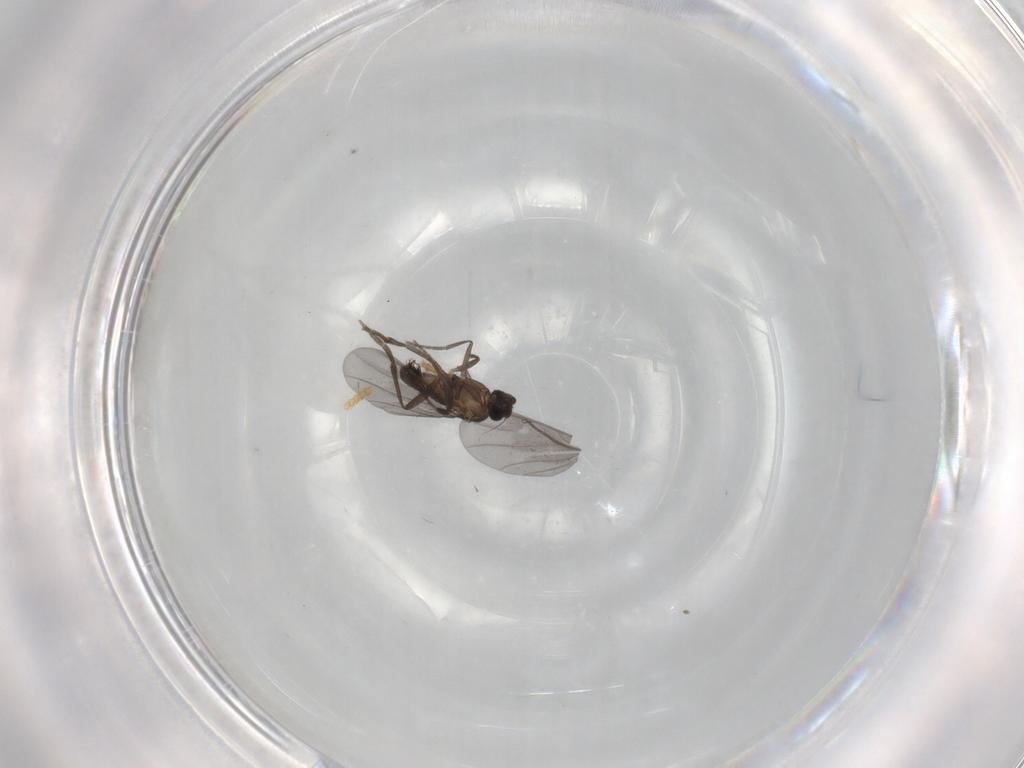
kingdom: Animalia
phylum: Arthropoda
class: Insecta
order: Diptera
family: Phoridae
